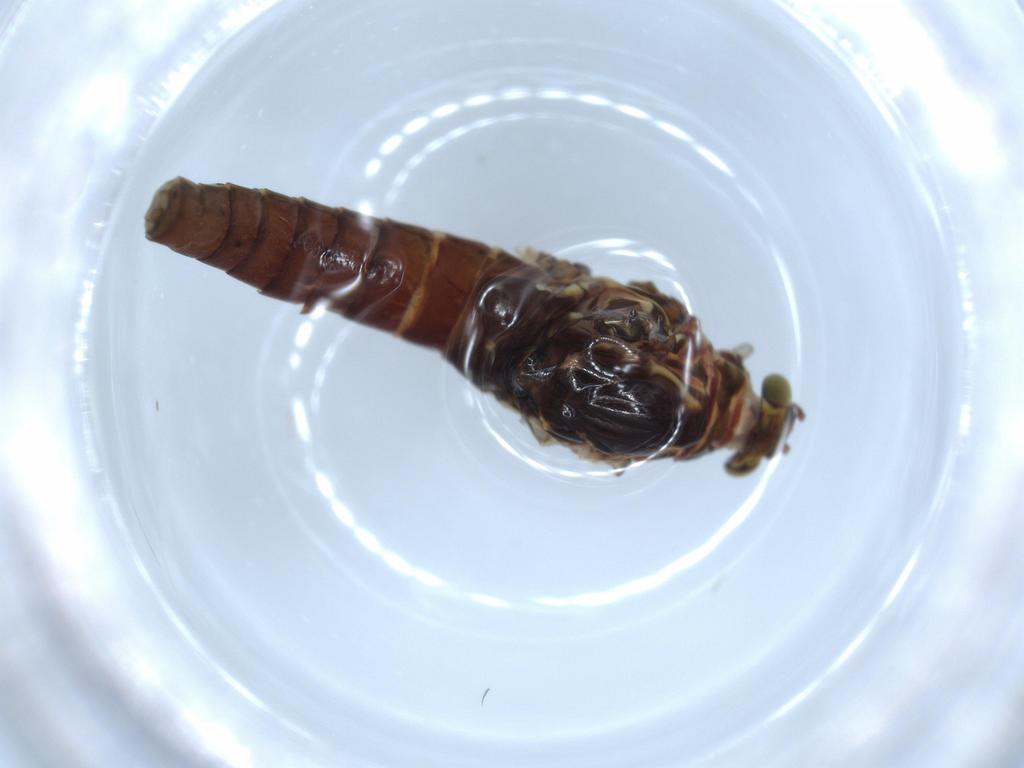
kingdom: Animalia
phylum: Arthropoda
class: Insecta
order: Ephemeroptera
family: Baetidae
